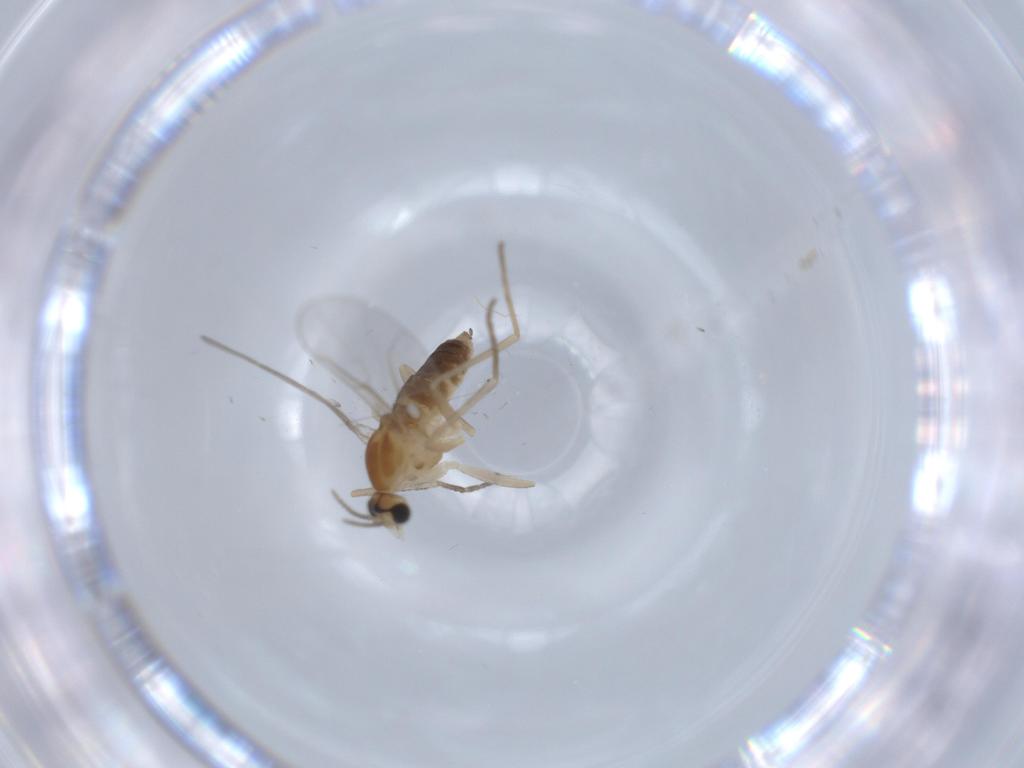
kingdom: Animalia
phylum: Arthropoda
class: Insecta
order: Diptera
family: Cecidomyiidae
